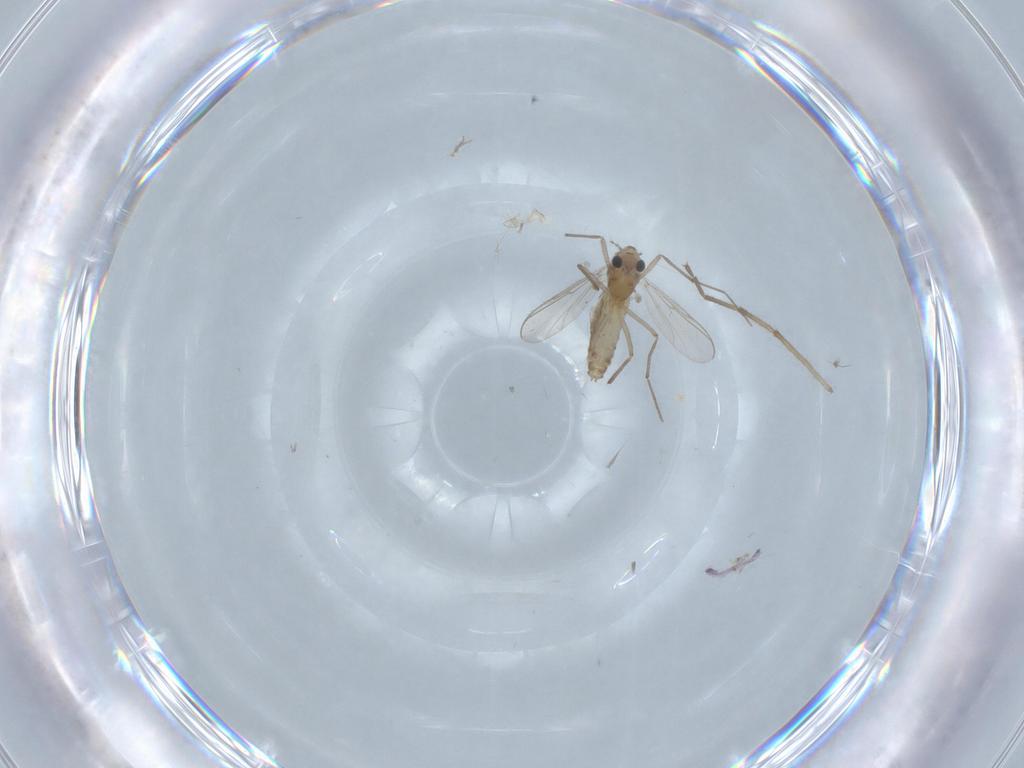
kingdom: Animalia
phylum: Arthropoda
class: Insecta
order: Diptera
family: Chironomidae
